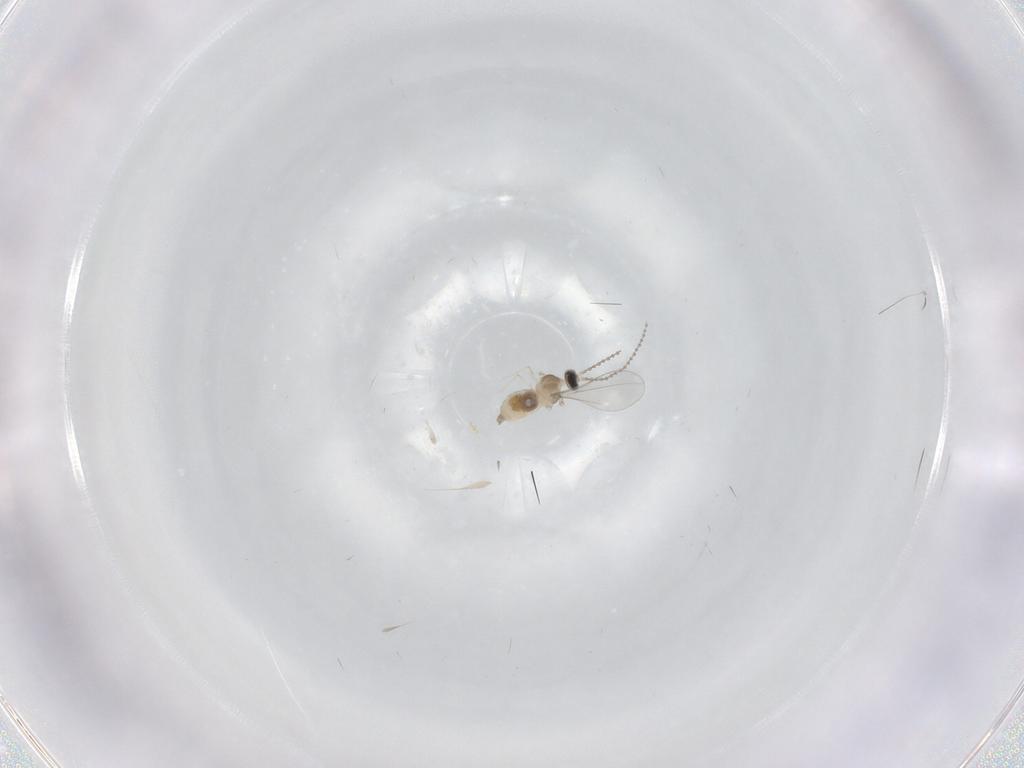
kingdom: Animalia
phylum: Arthropoda
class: Insecta
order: Diptera
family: Cecidomyiidae
